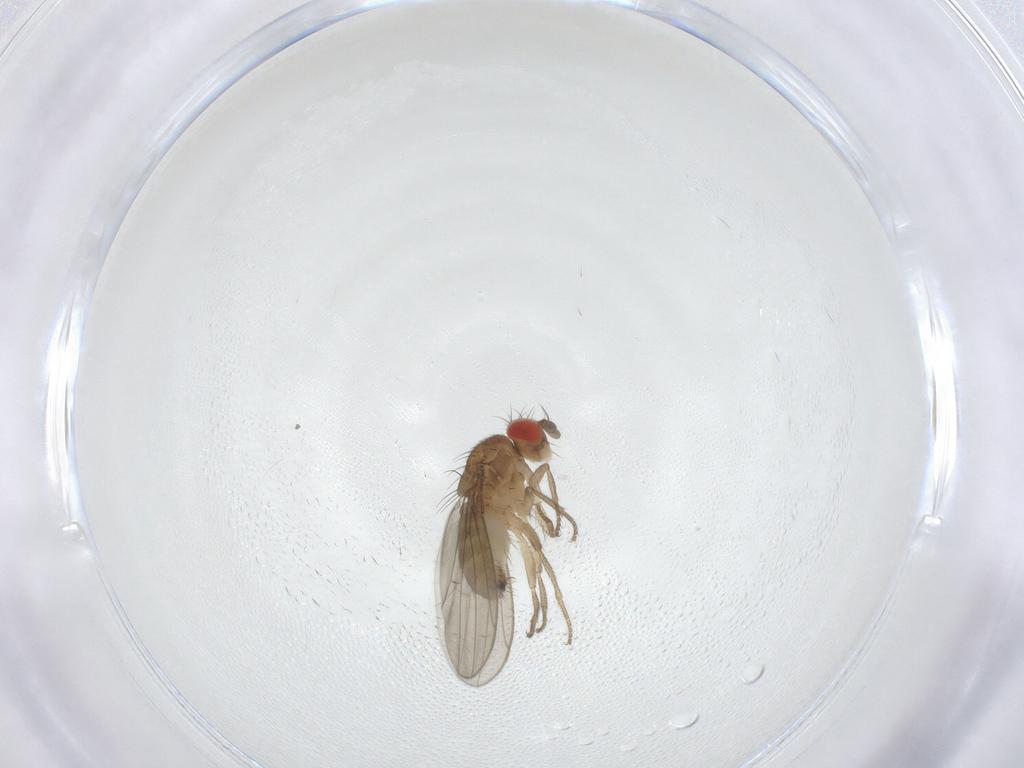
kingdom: Animalia
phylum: Arthropoda
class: Insecta
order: Diptera
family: Drosophilidae
